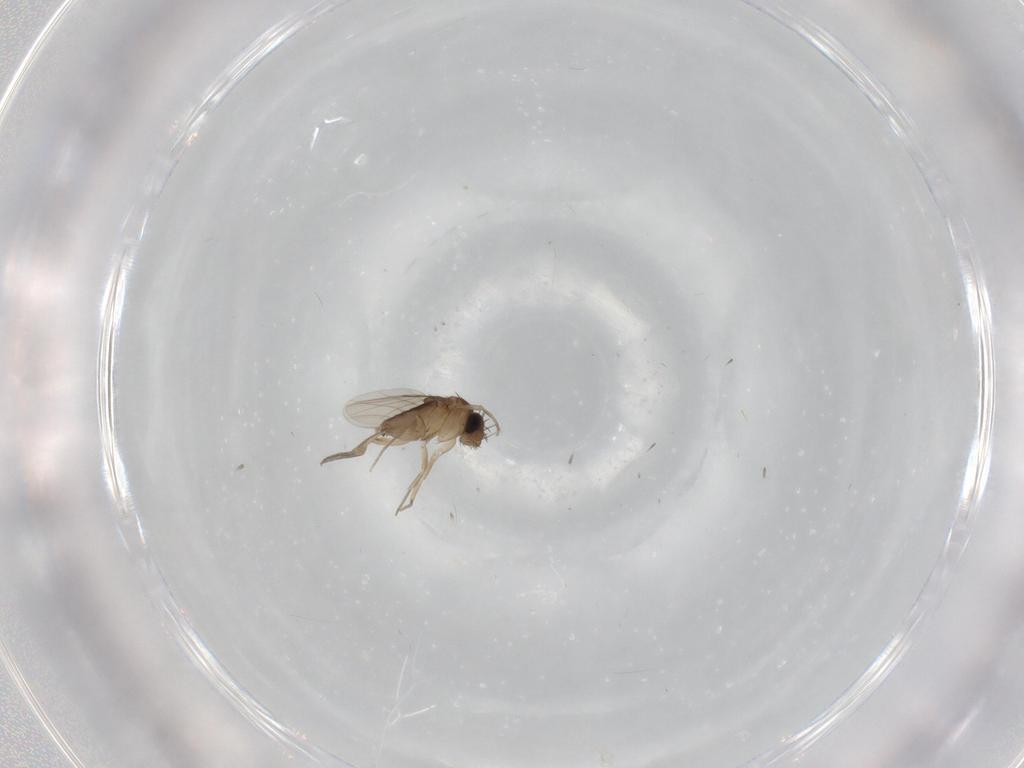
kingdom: Animalia
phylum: Arthropoda
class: Insecta
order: Diptera
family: Phoridae
